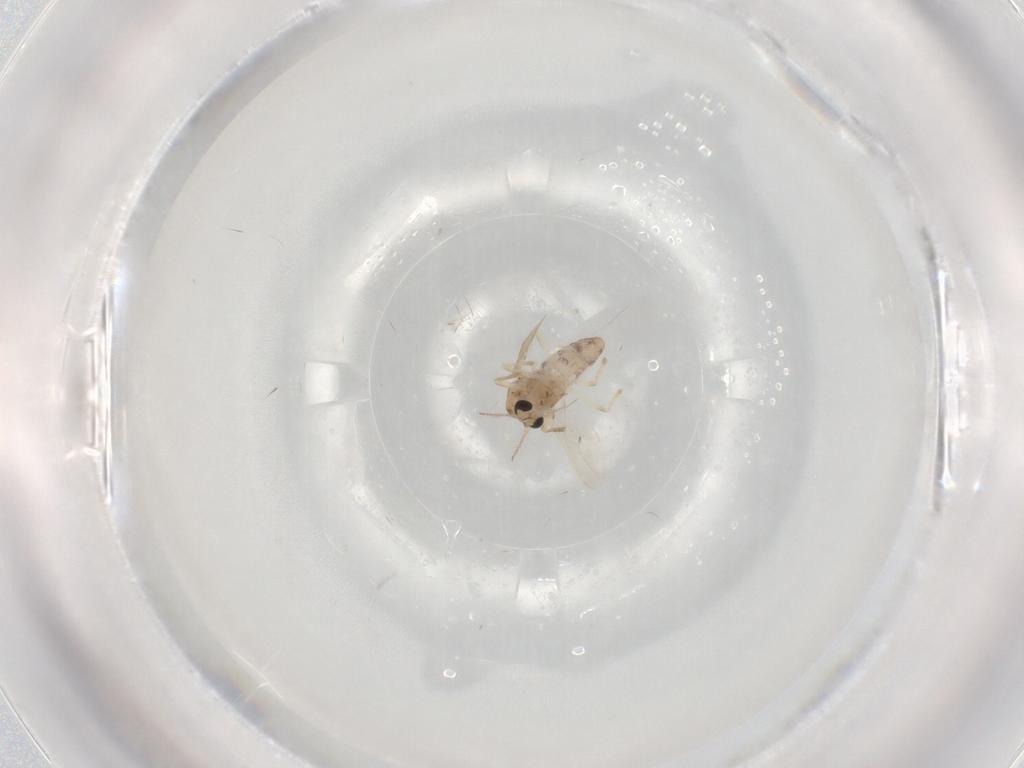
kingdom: Animalia
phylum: Arthropoda
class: Insecta
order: Diptera
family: Chironomidae
